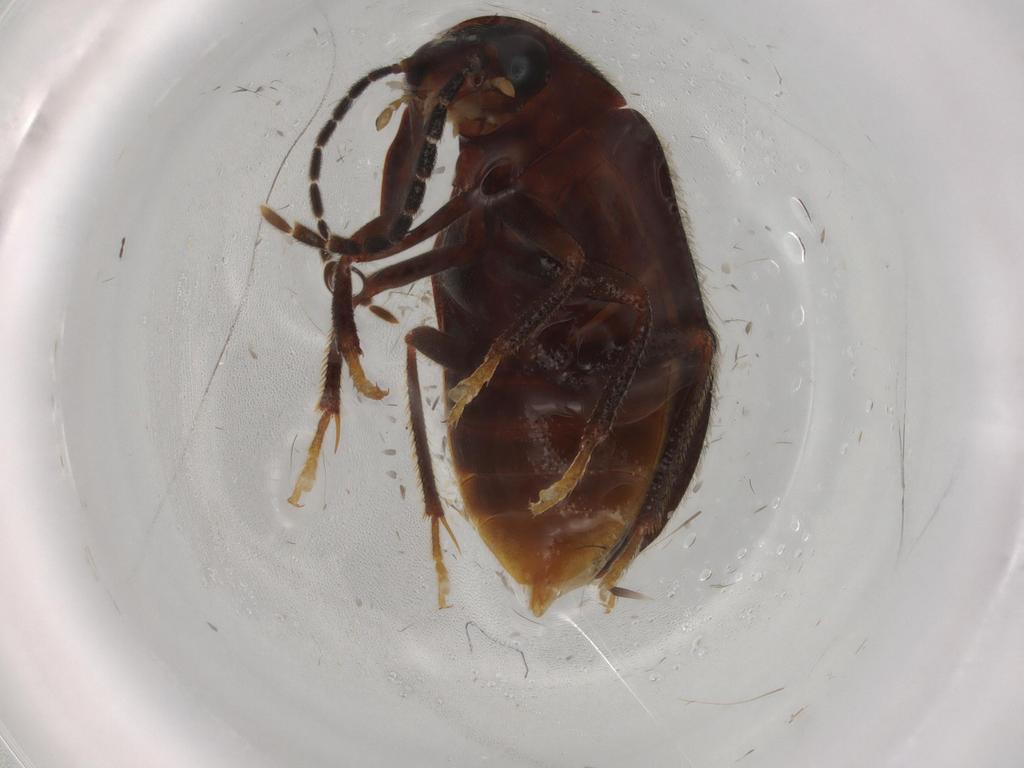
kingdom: Animalia
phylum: Arthropoda
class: Insecta
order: Coleoptera
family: Ptilodactylidae
